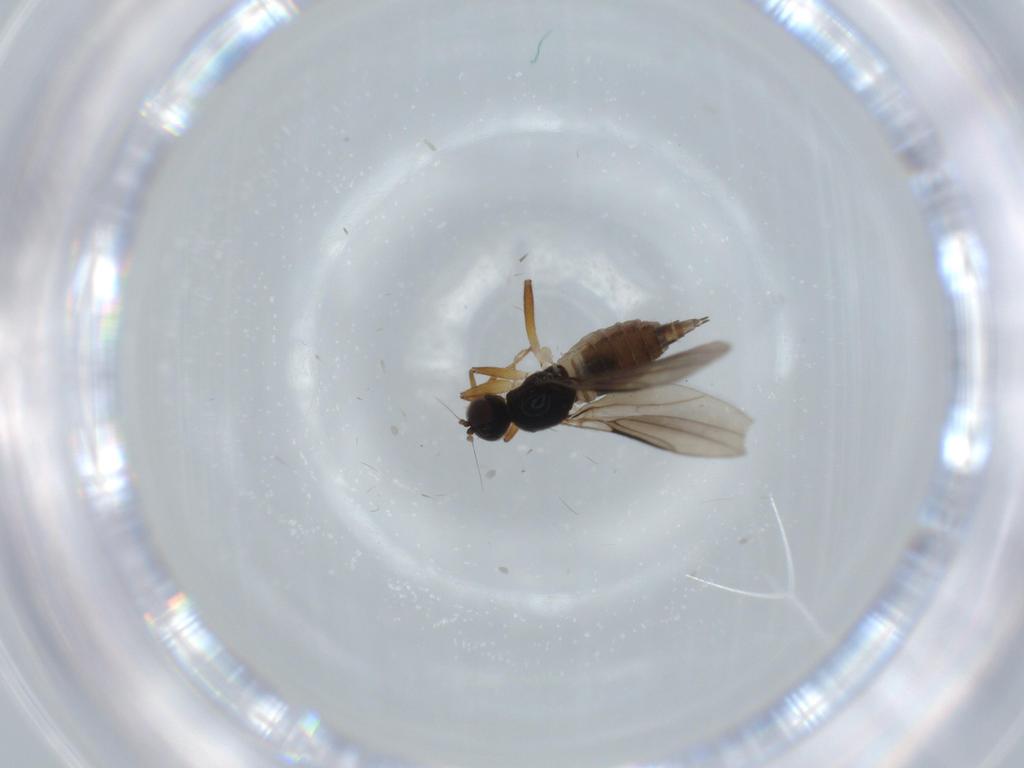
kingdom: Animalia
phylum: Arthropoda
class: Insecta
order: Diptera
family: Hybotidae
